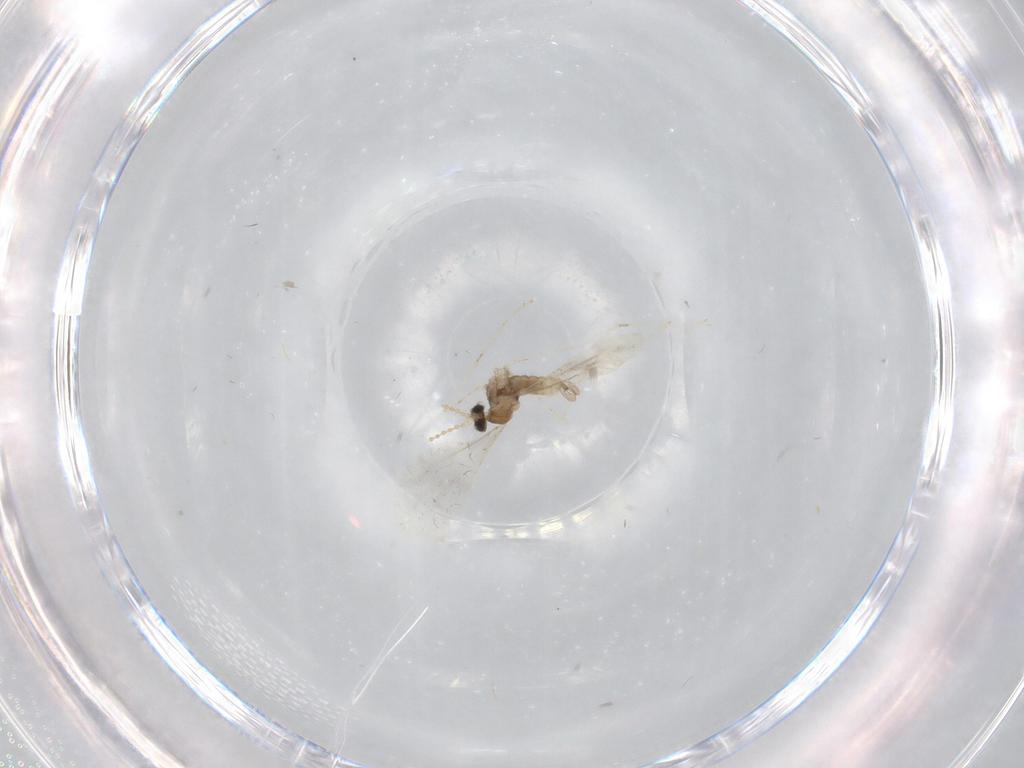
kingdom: Animalia
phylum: Arthropoda
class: Insecta
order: Diptera
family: Cecidomyiidae
